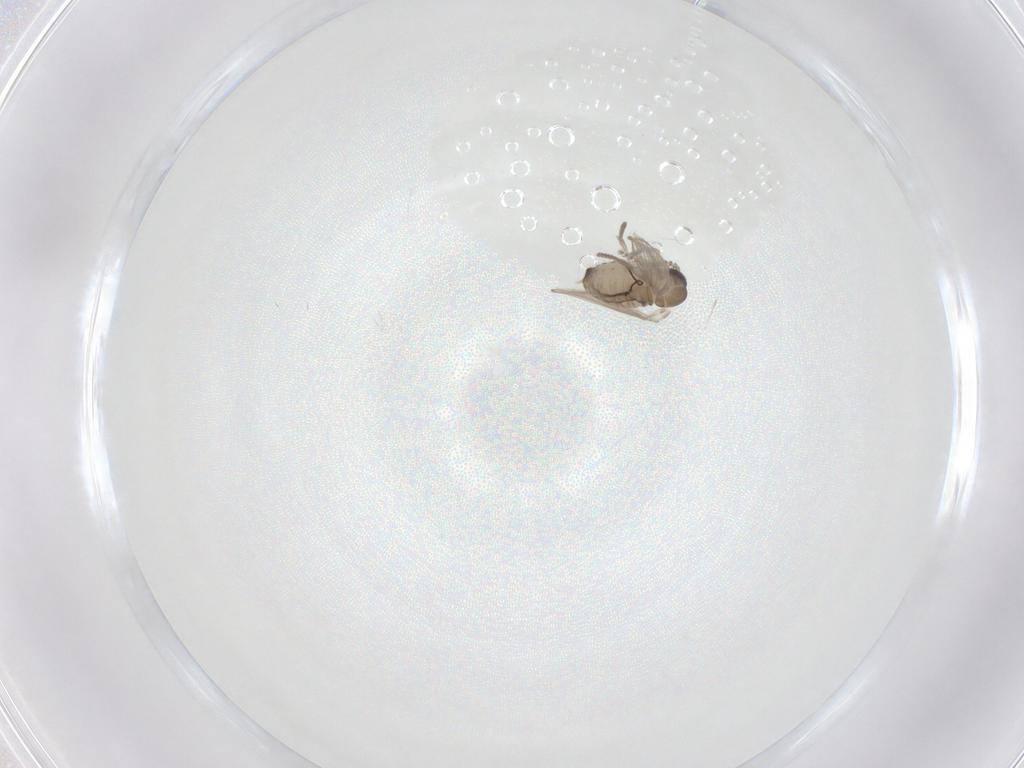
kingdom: Animalia
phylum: Arthropoda
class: Insecta
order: Diptera
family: Psychodidae
